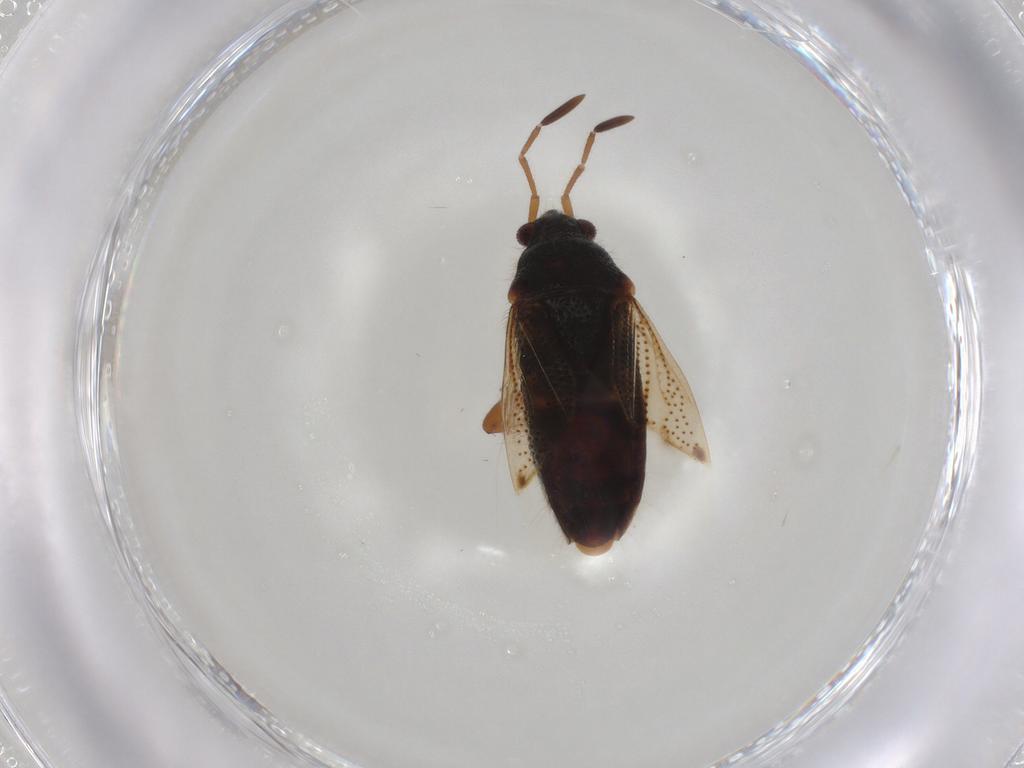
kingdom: Animalia
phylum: Arthropoda
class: Insecta
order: Hemiptera
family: Rhyparochromidae
